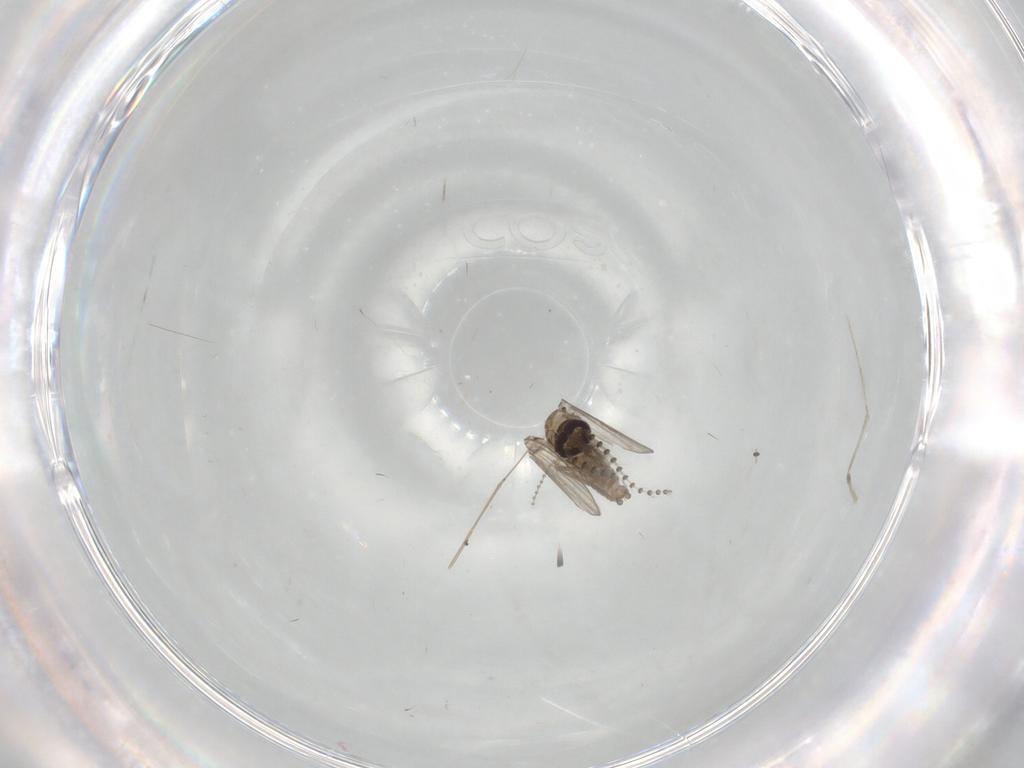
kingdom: Animalia
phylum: Arthropoda
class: Insecta
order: Diptera
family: Psychodidae
